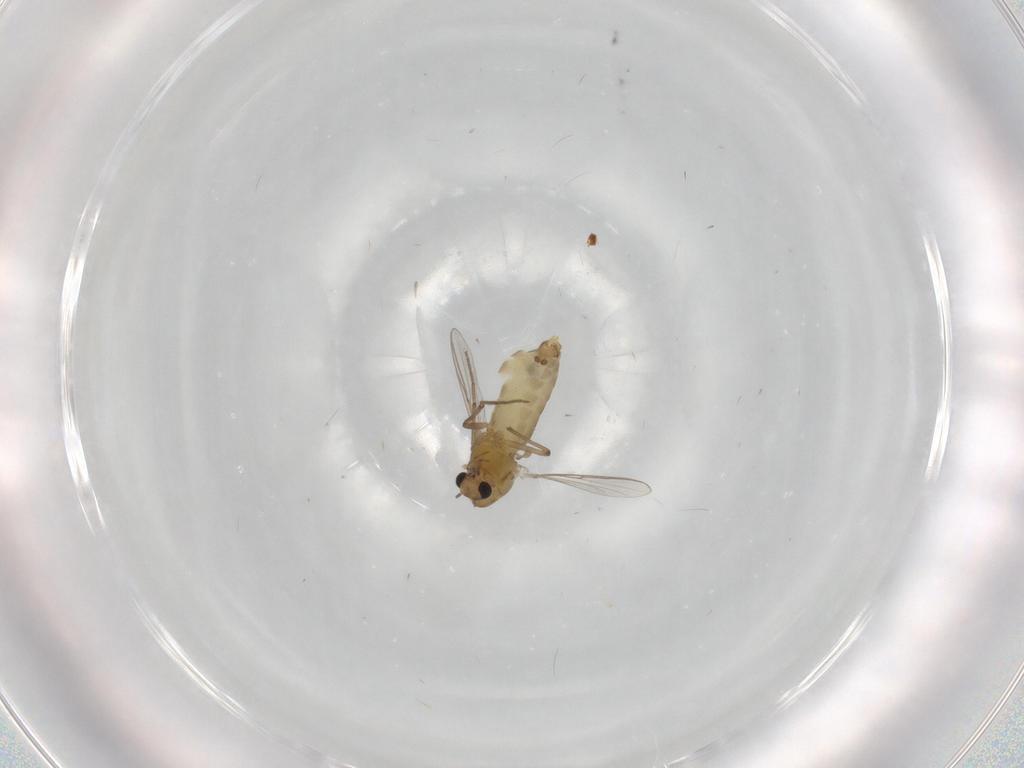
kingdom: Animalia
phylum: Arthropoda
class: Insecta
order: Diptera
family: Chironomidae
